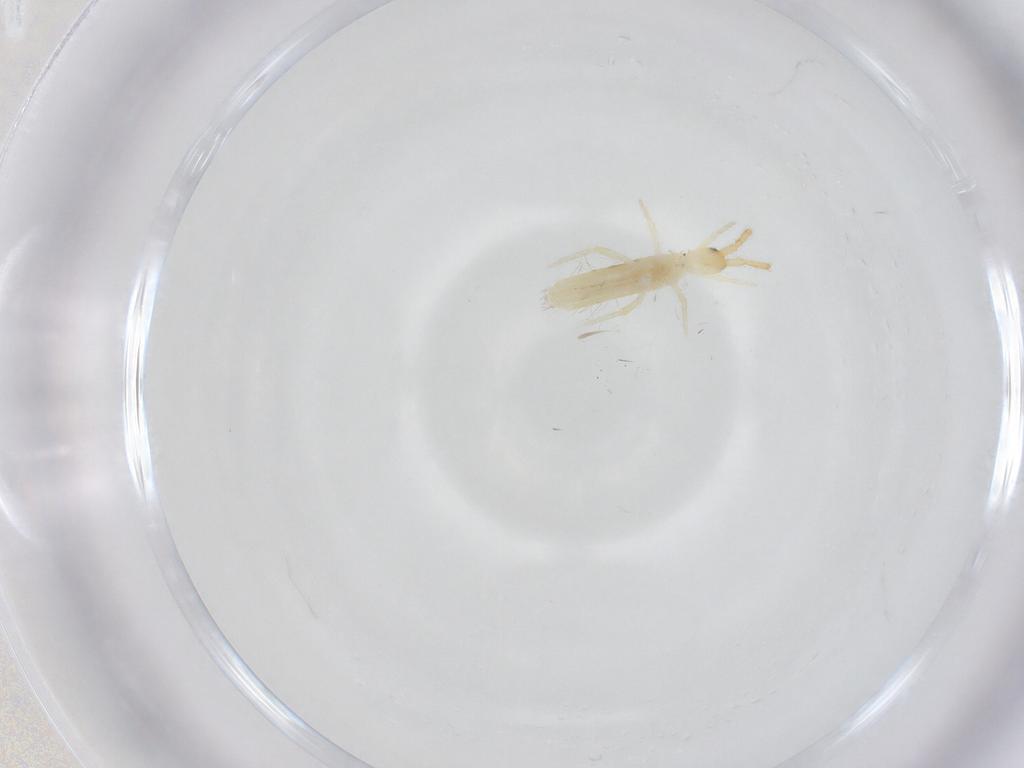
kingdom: Animalia
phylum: Arthropoda
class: Collembola
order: Entomobryomorpha
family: Entomobryidae
